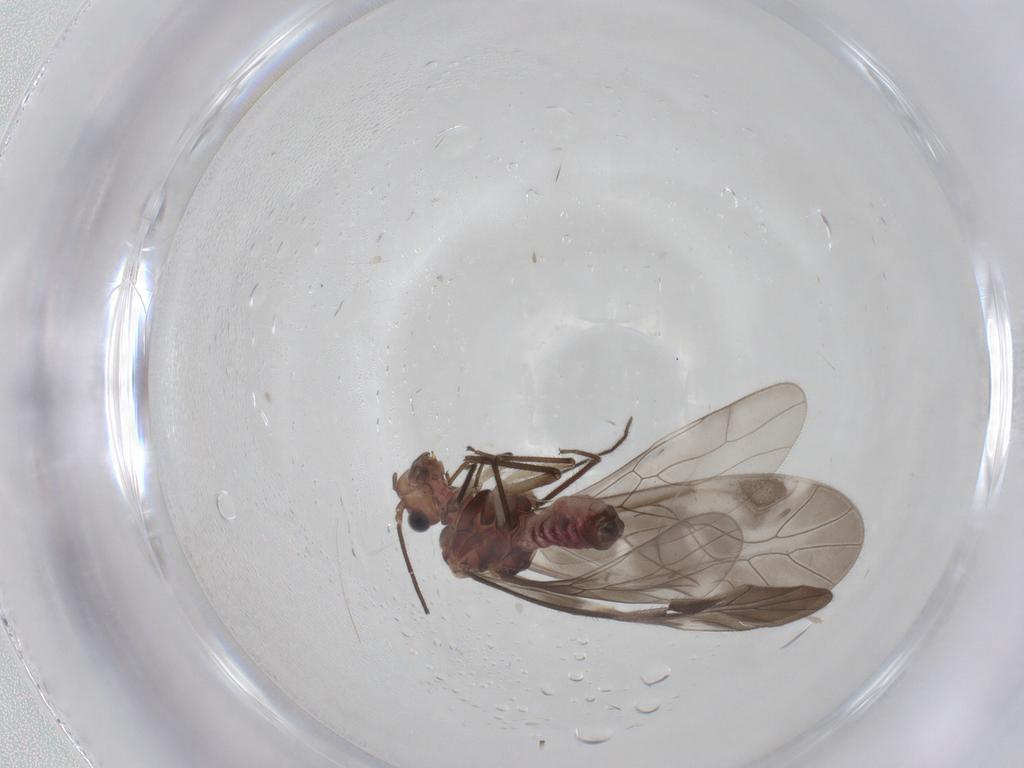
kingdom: Animalia
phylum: Arthropoda
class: Insecta
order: Psocodea
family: Caeciliusidae
